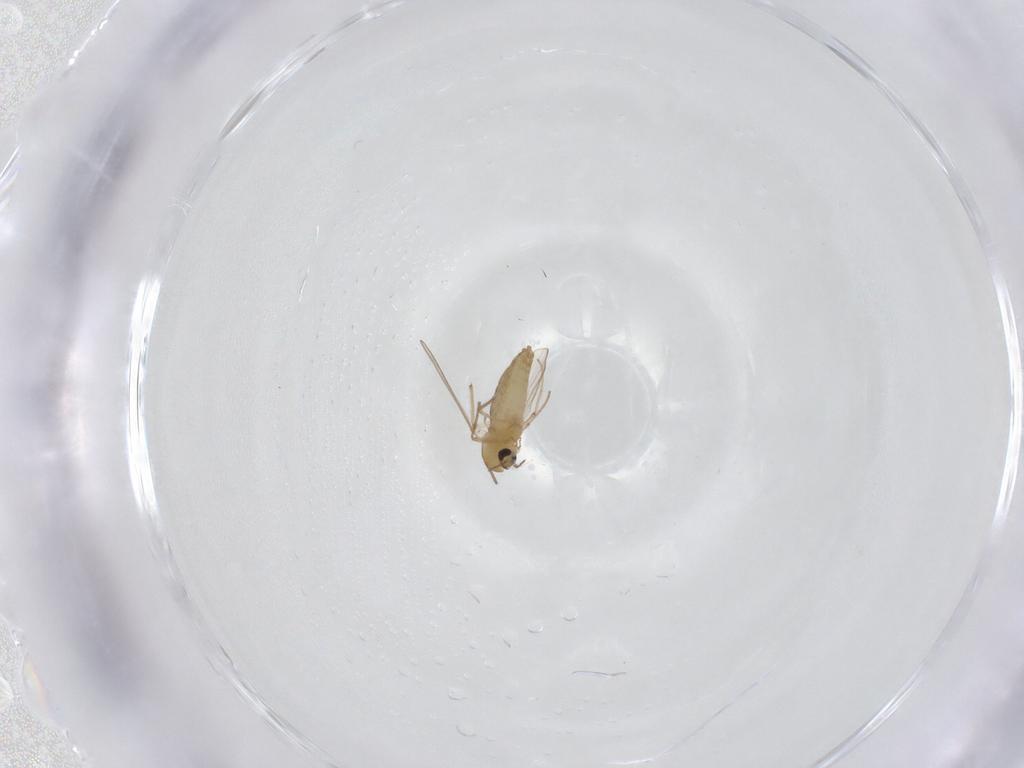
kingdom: Animalia
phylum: Arthropoda
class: Insecta
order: Diptera
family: Chironomidae
